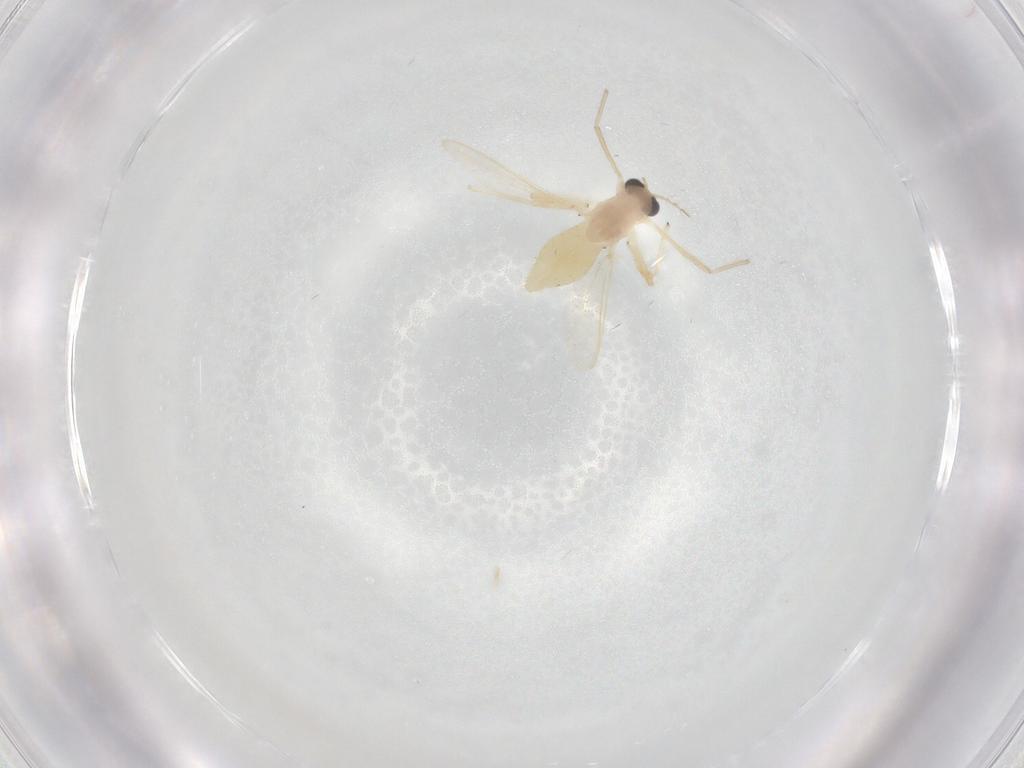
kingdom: Animalia
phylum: Arthropoda
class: Insecta
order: Diptera
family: Chironomidae
